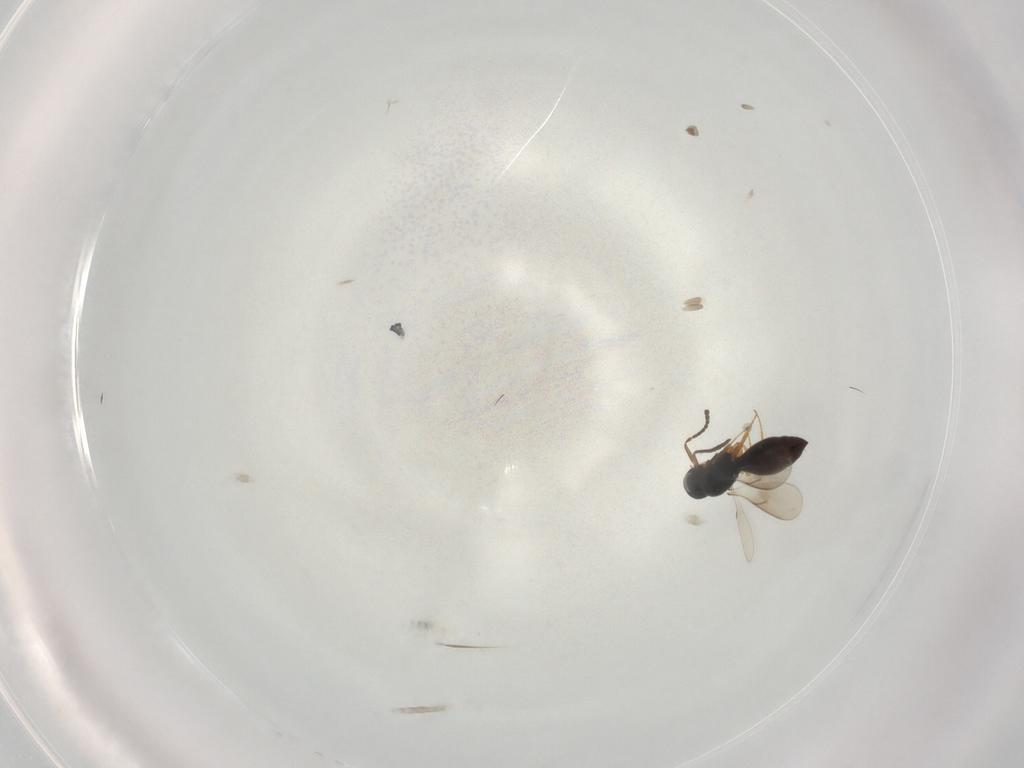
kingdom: Animalia
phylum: Arthropoda
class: Insecta
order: Hymenoptera
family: Scelionidae
